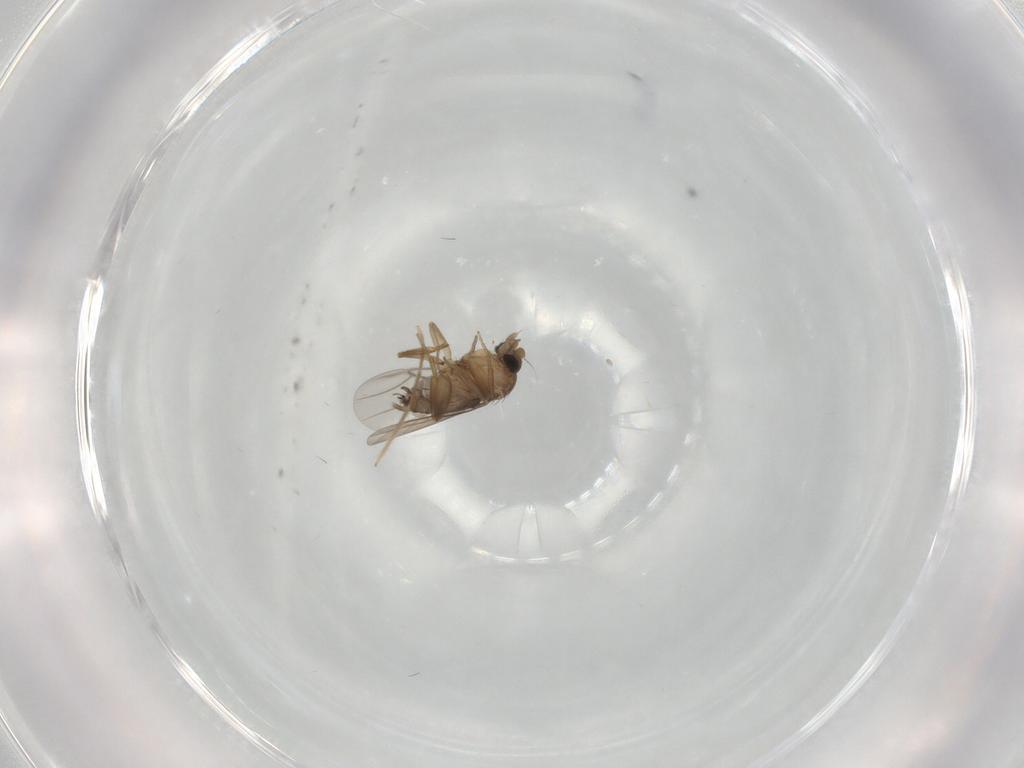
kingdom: Animalia
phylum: Arthropoda
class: Insecta
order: Diptera
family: Chironomidae
